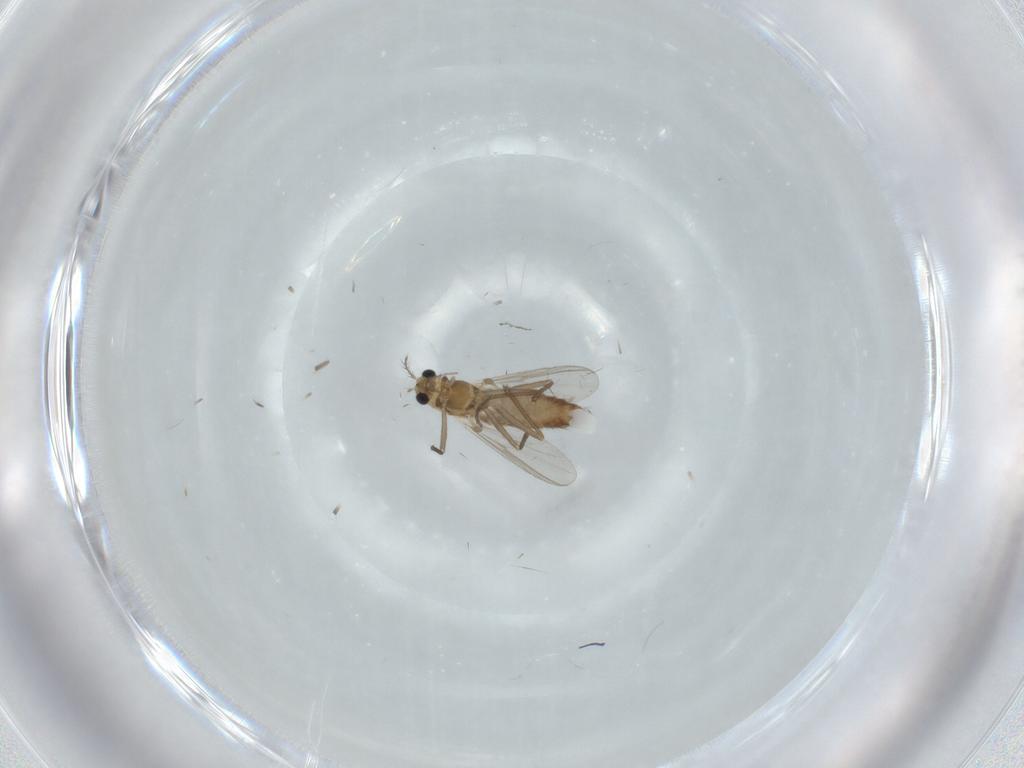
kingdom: Animalia
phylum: Arthropoda
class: Insecta
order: Diptera
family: Chironomidae
